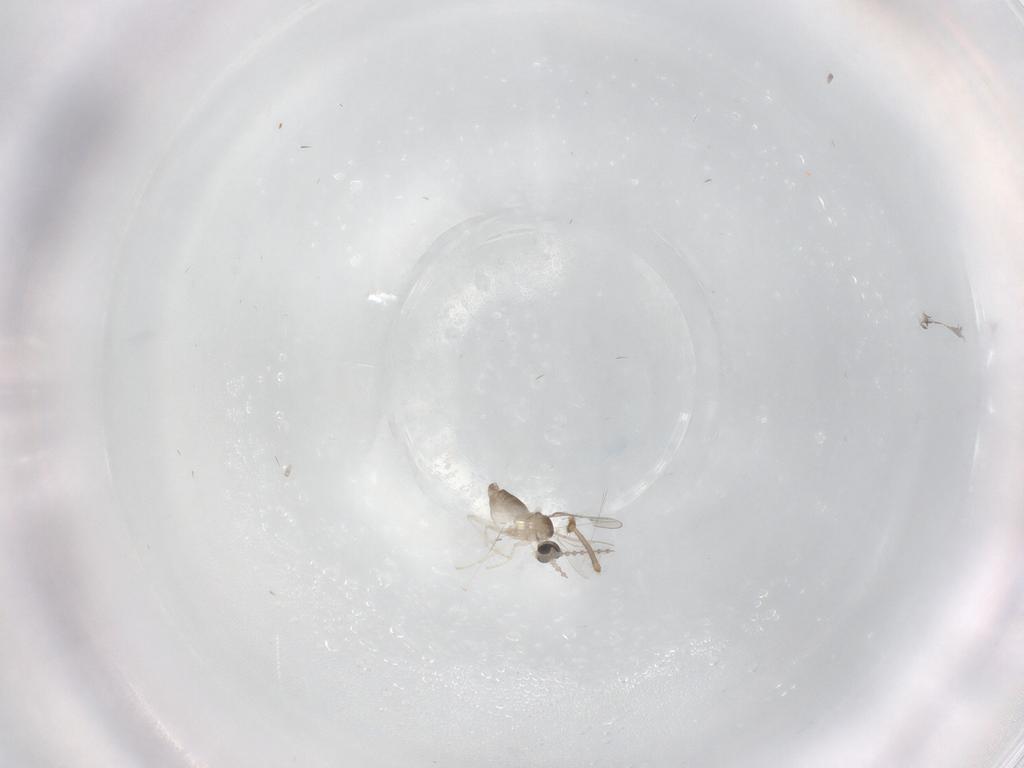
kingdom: Animalia
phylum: Arthropoda
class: Insecta
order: Diptera
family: Cecidomyiidae
